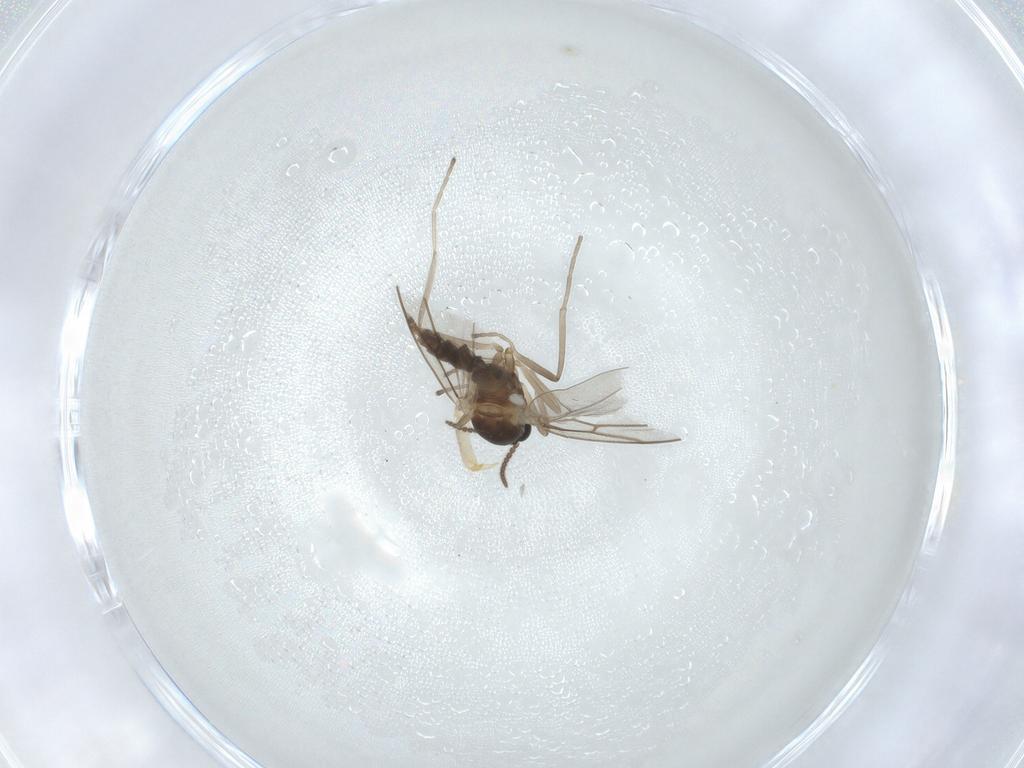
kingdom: Animalia
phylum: Arthropoda
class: Insecta
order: Diptera
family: Cecidomyiidae
